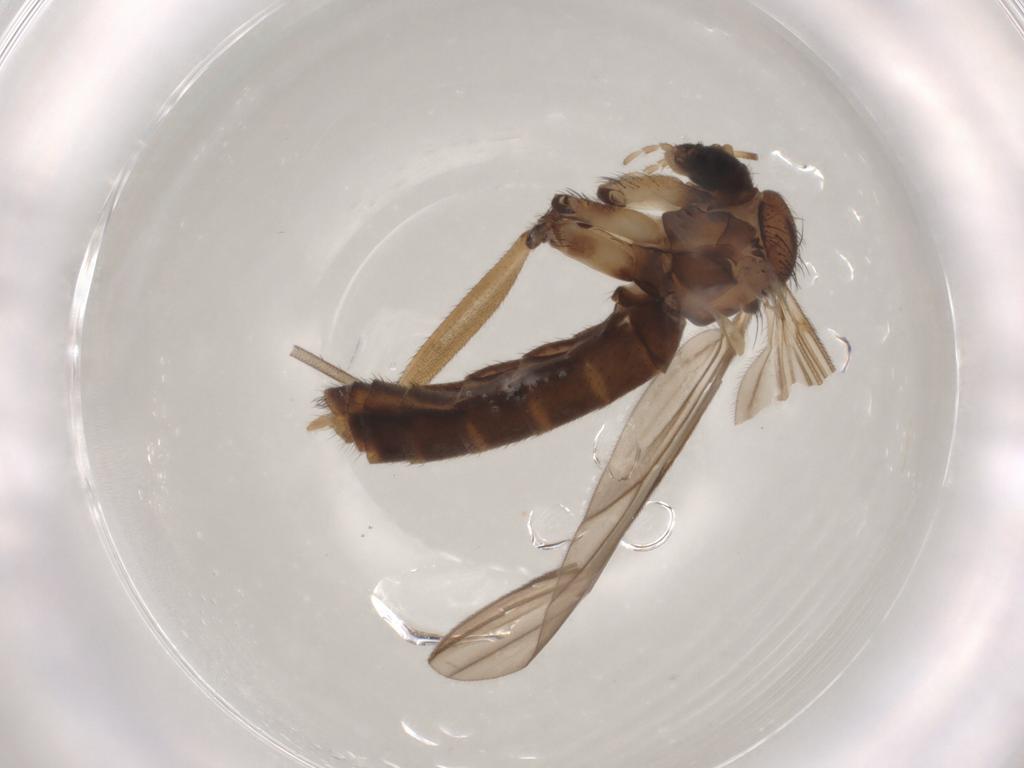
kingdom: Animalia
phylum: Arthropoda
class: Insecta
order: Diptera
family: Mycetophilidae
